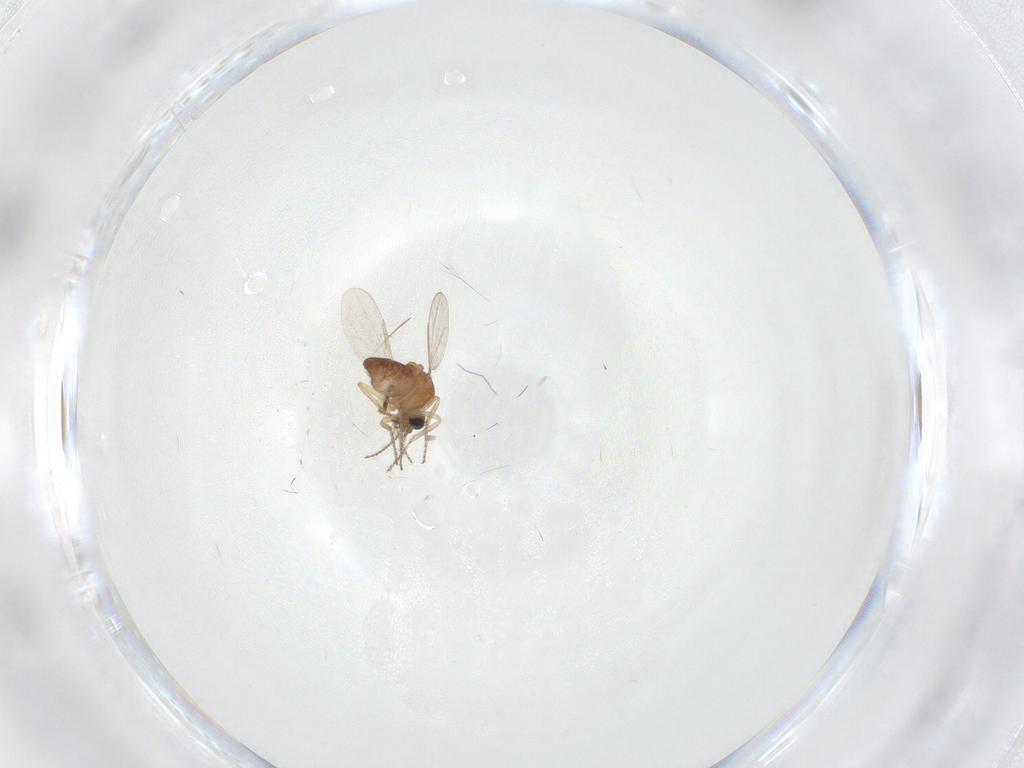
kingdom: Animalia
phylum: Arthropoda
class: Insecta
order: Diptera
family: Ceratopogonidae
